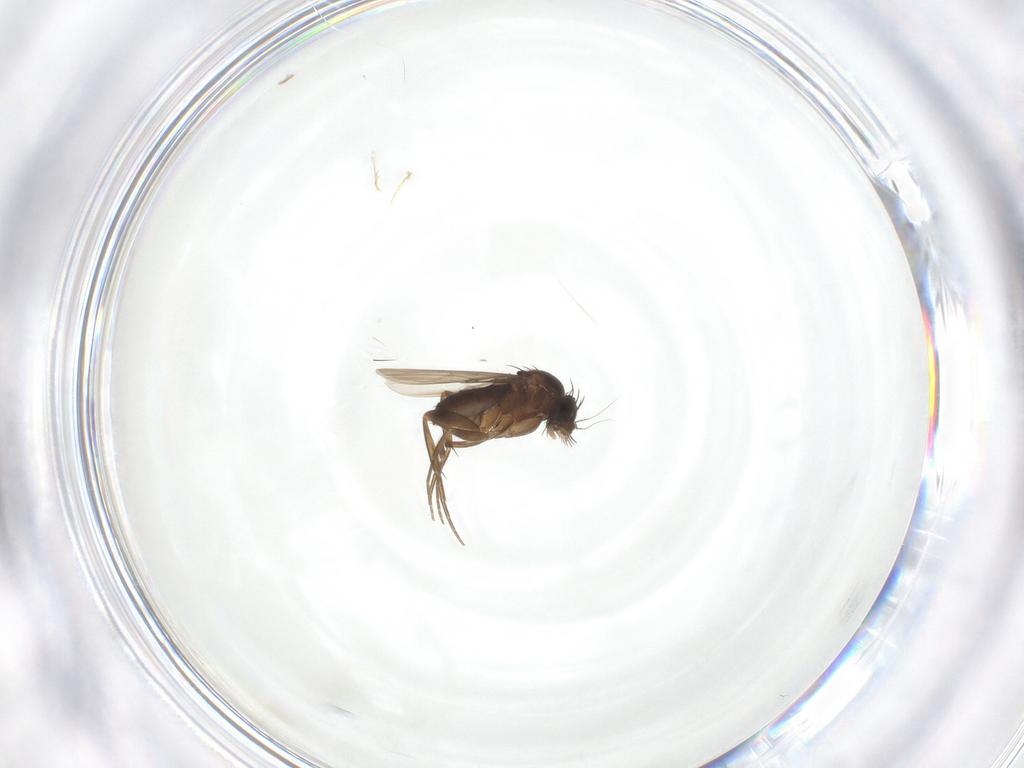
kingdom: Animalia
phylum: Arthropoda
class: Insecta
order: Diptera
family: Phoridae
